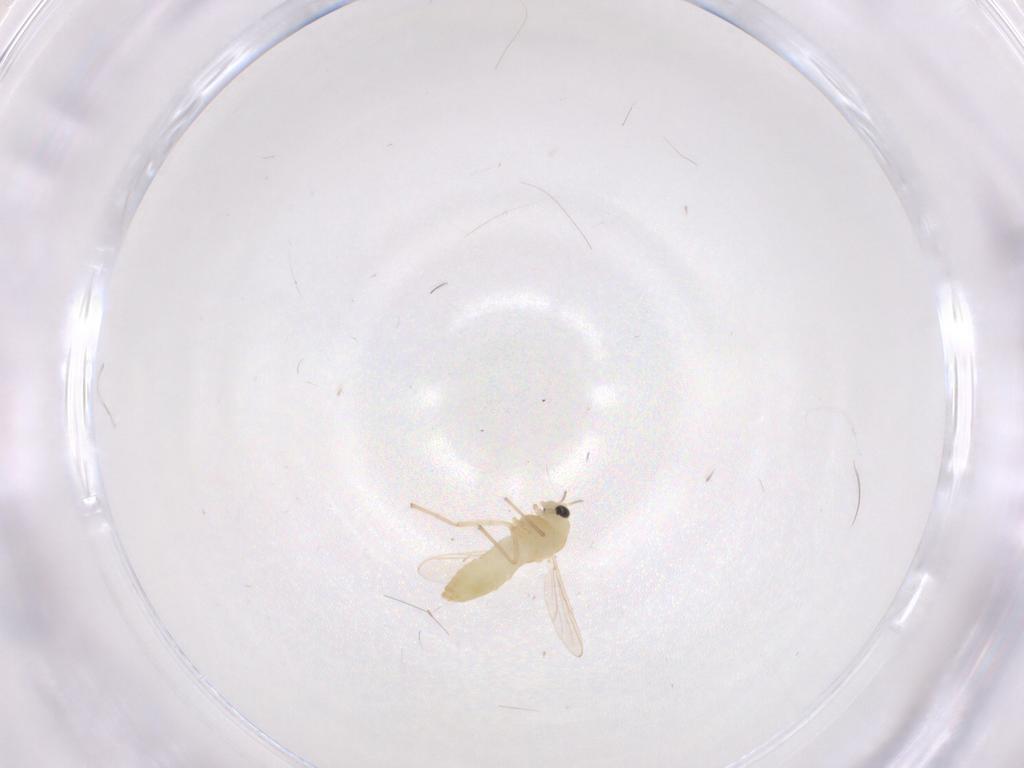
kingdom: Animalia
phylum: Arthropoda
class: Insecta
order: Diptera
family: Chironomidae
